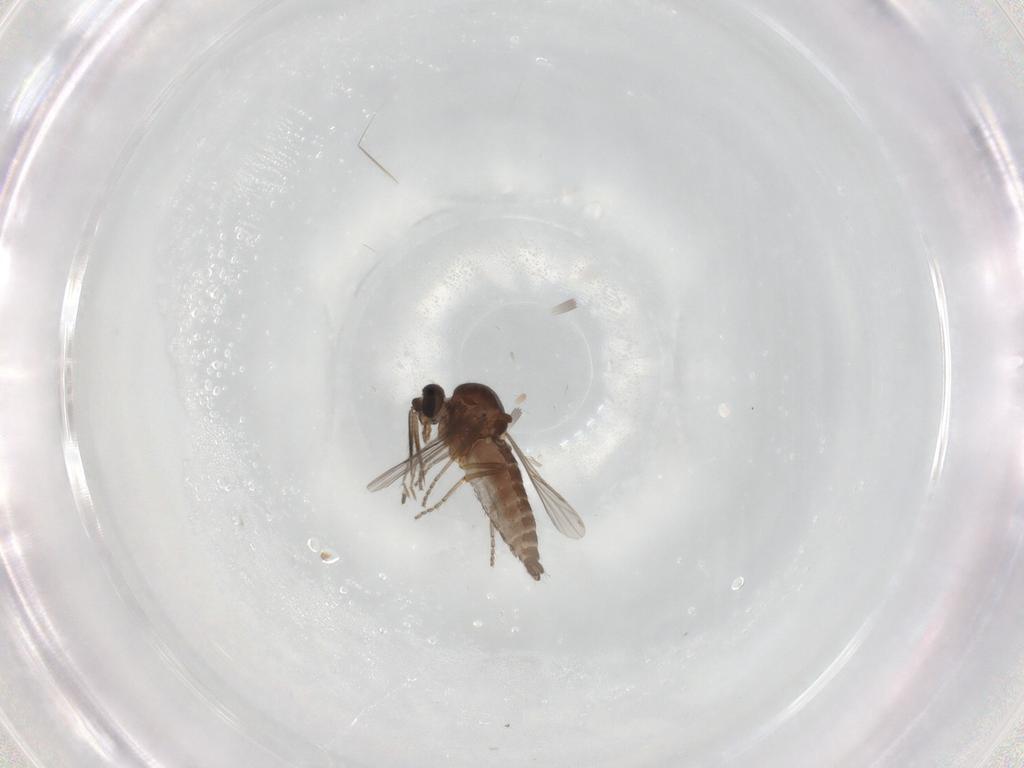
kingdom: Animalia
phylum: Arthropoda
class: Insecta
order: Diptera
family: Ceratopogonidae
